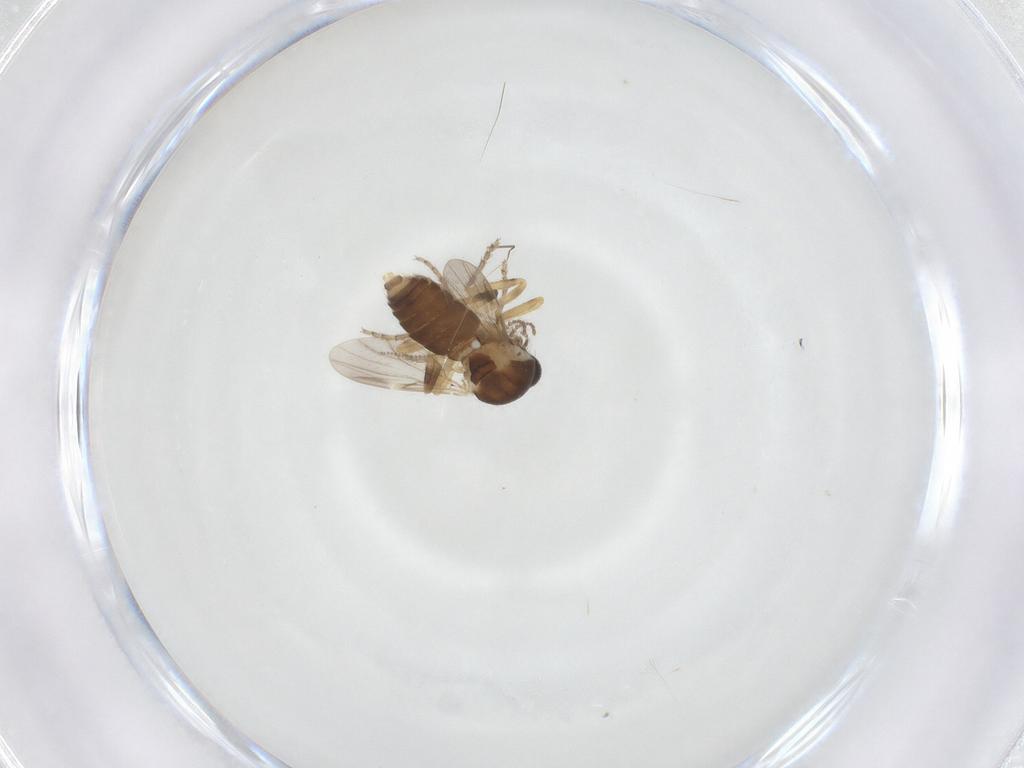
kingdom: Animalia
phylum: Arthropoda
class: Insecta
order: Diptera
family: Ceratopogonidae
